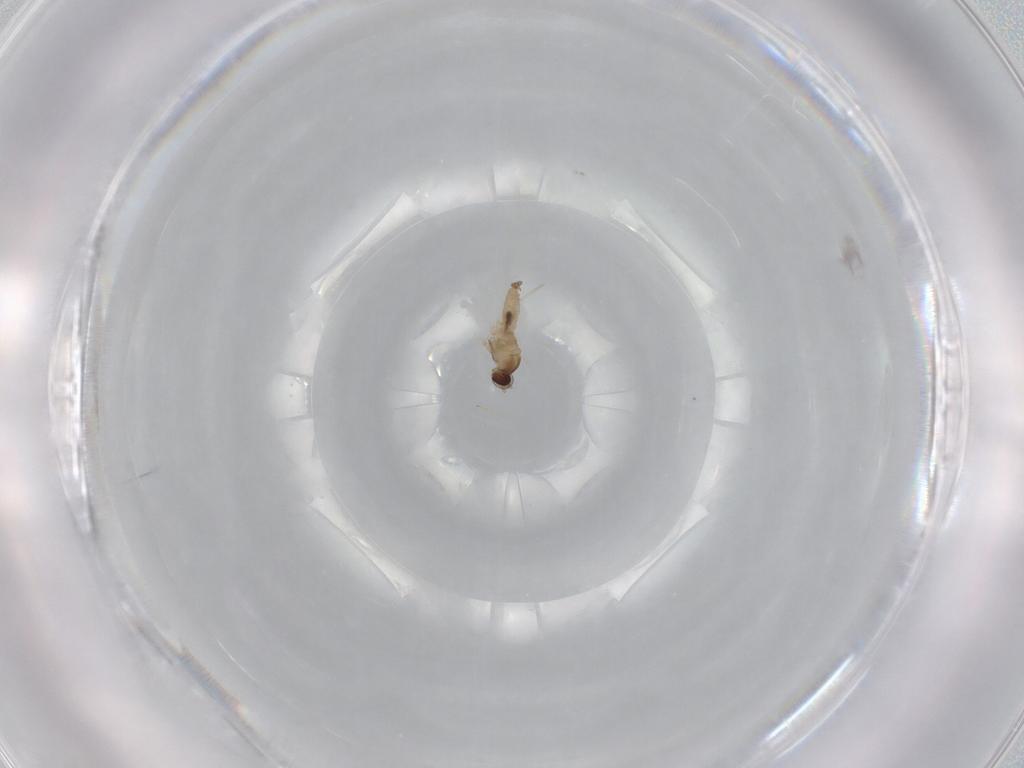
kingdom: Animalia
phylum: Arthropoda
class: Insecta
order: Diptera
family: Cecidomyiidae
